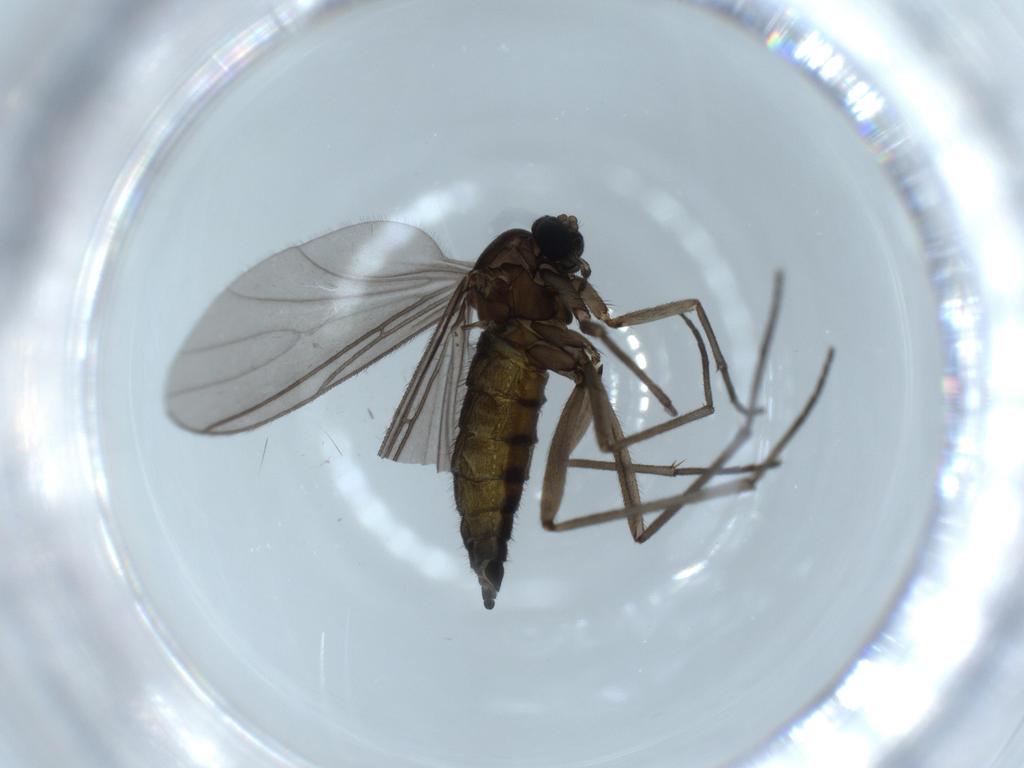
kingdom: Animalia
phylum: Arthropoda
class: Insecta
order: Diptera
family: Sciaridae
